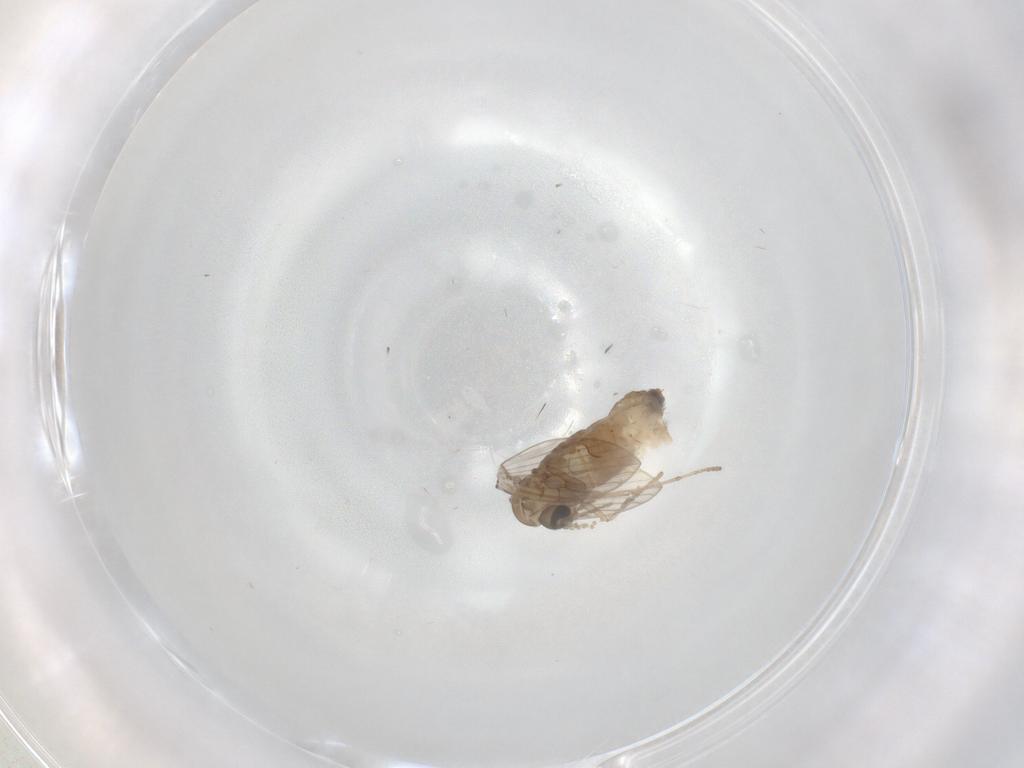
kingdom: Animalia
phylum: Arthropoda
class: Insecta
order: Diptera
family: Psychodidae
